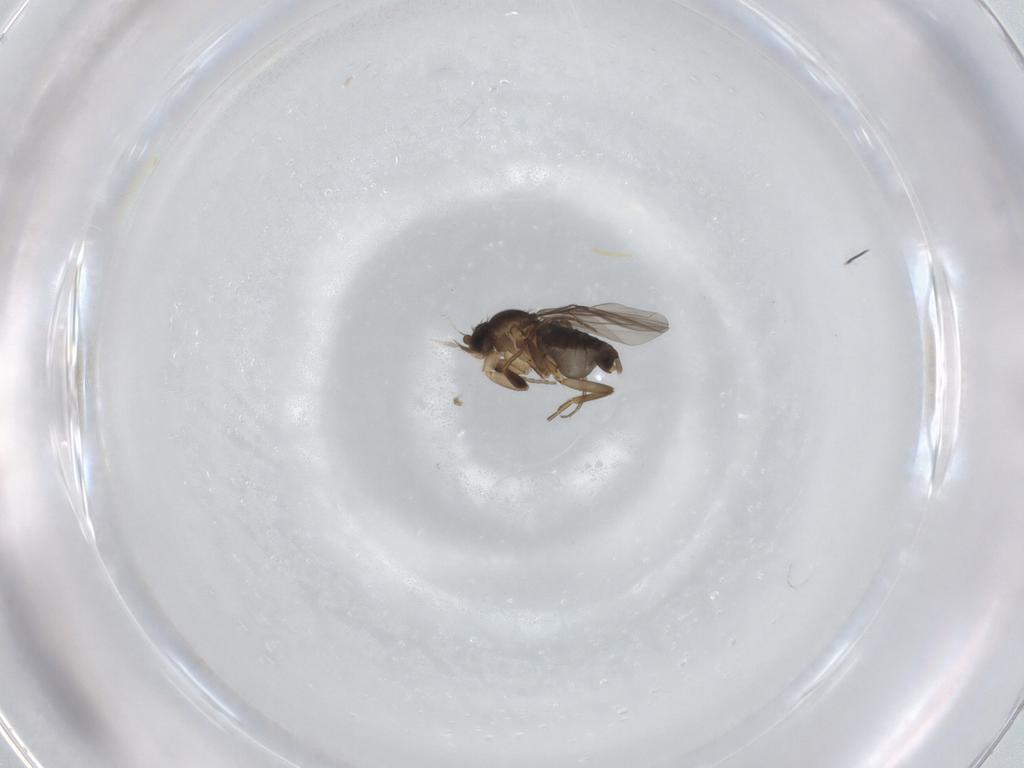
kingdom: Animalia
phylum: Arthropoda
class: Insecta
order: Diptera
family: Phoridae
